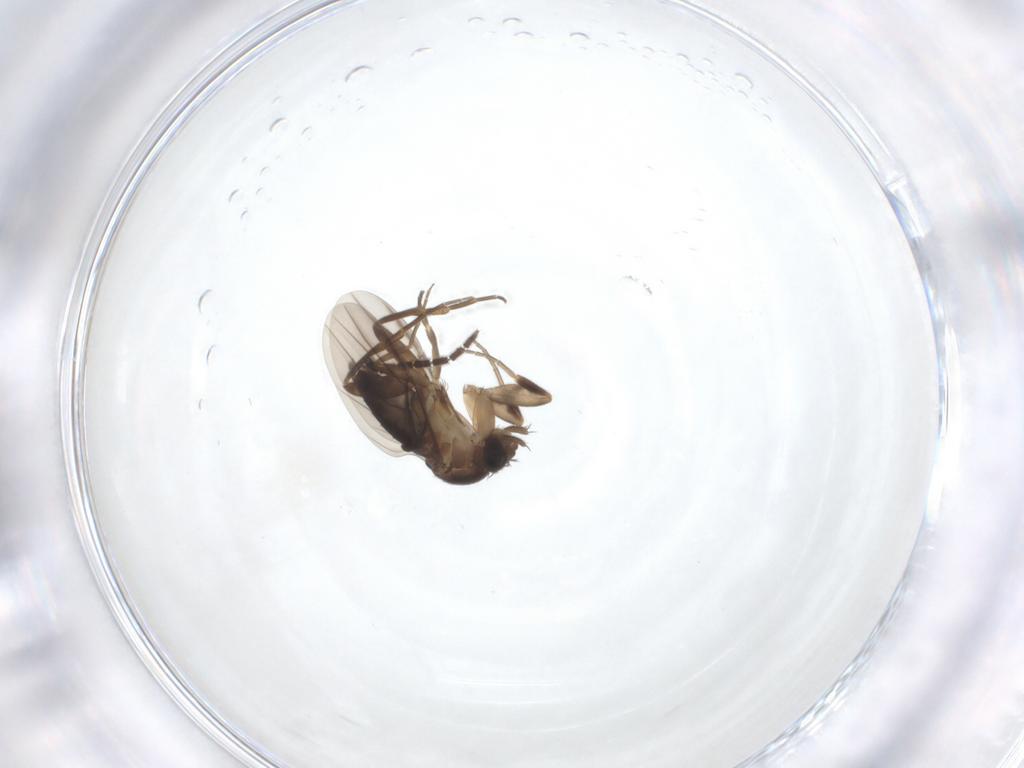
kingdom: Animalia
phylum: Arthropoda
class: Insecta
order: Diptera
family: Phoridae
